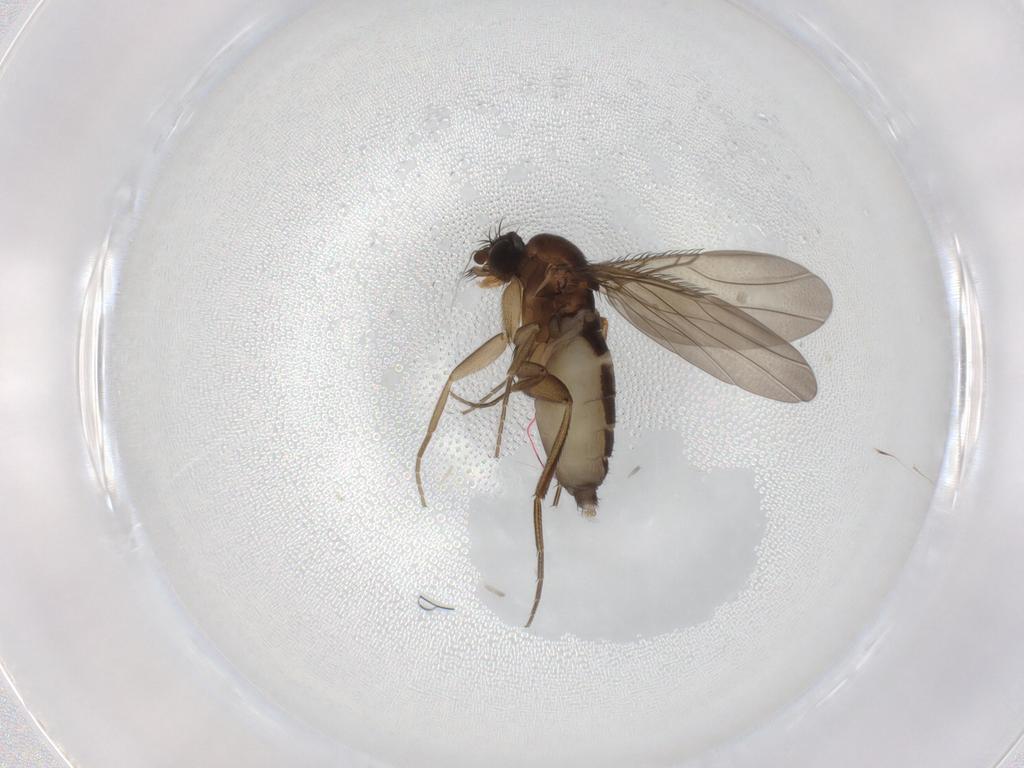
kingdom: Animalia
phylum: Arthropoda
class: Insecta
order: Diptera
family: Phoridae
